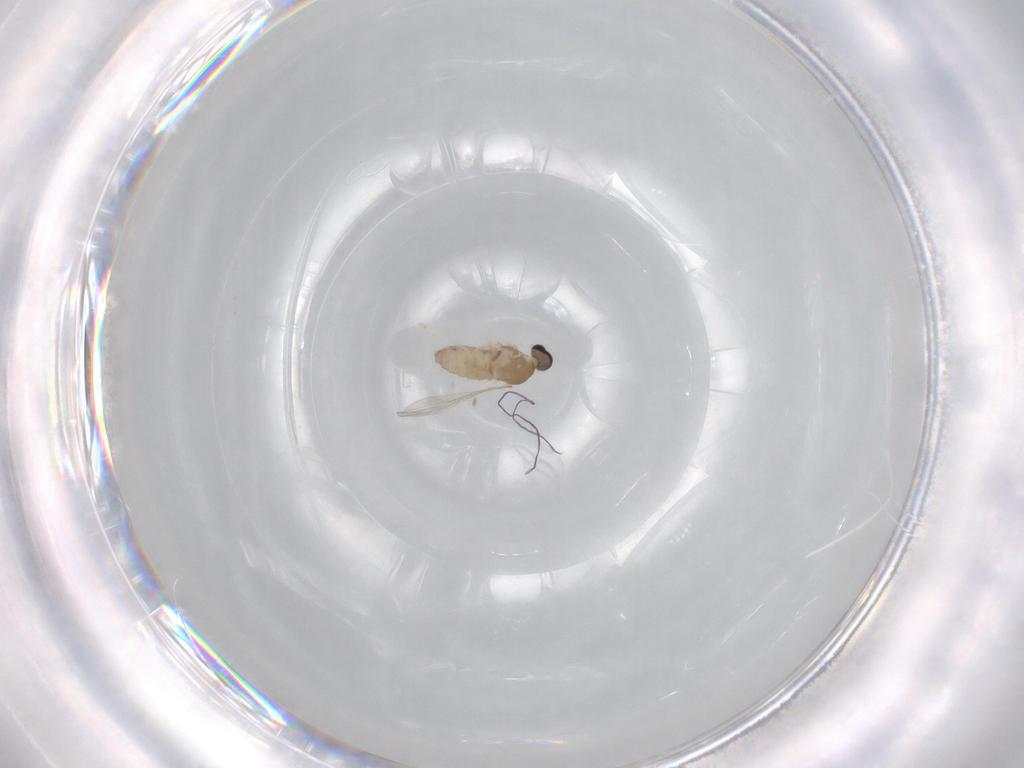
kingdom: Animalia
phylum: Arthropoda
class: Insecta
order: Diptera
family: Cecidomyiidae
